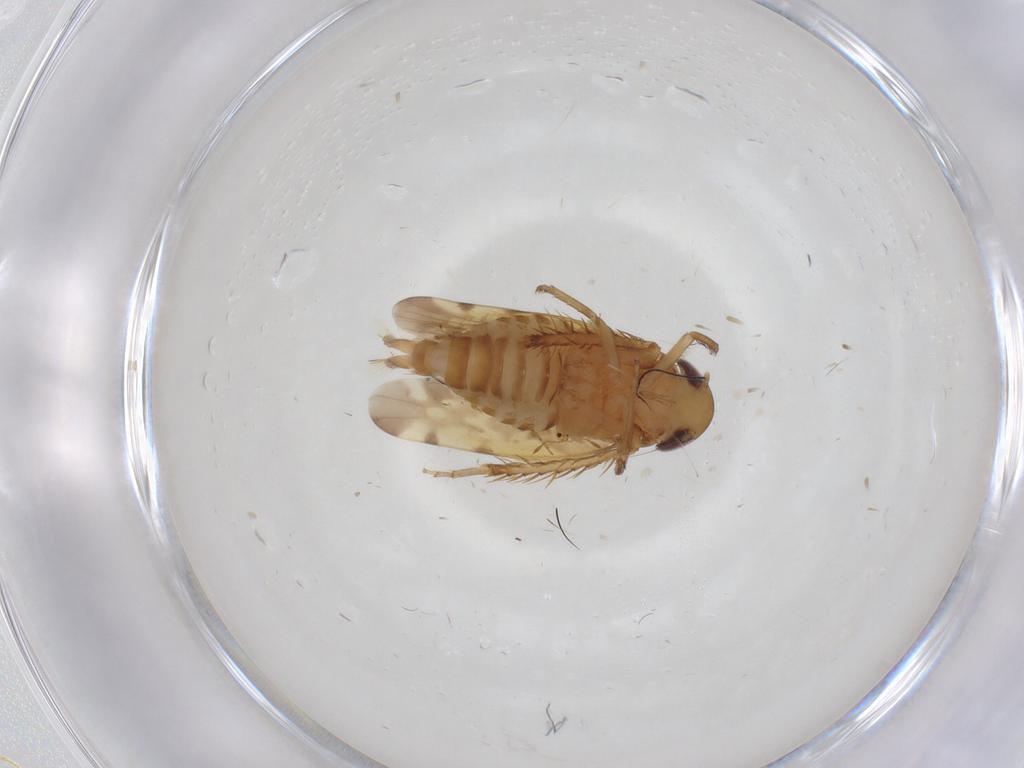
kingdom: Animalia
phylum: Arthropoda
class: Insecta
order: Hemiptera
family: Cicadellidae
